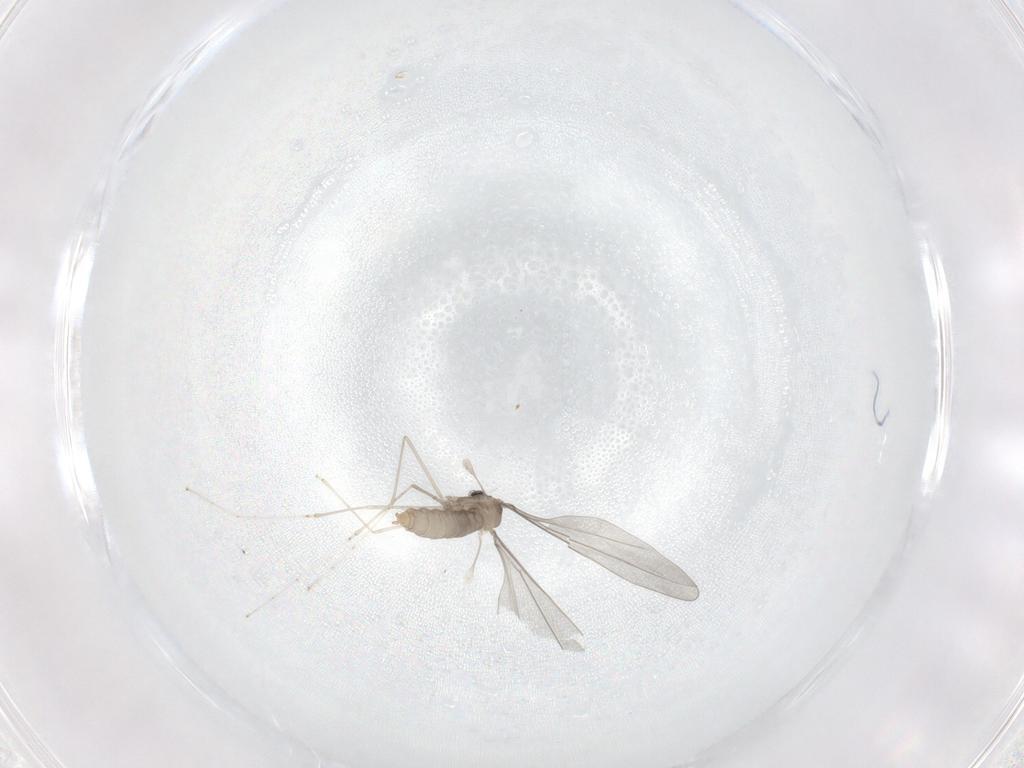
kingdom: Animalia
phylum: Arthropoda
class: Insecta
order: Diptera
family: Cecidomyiidae
